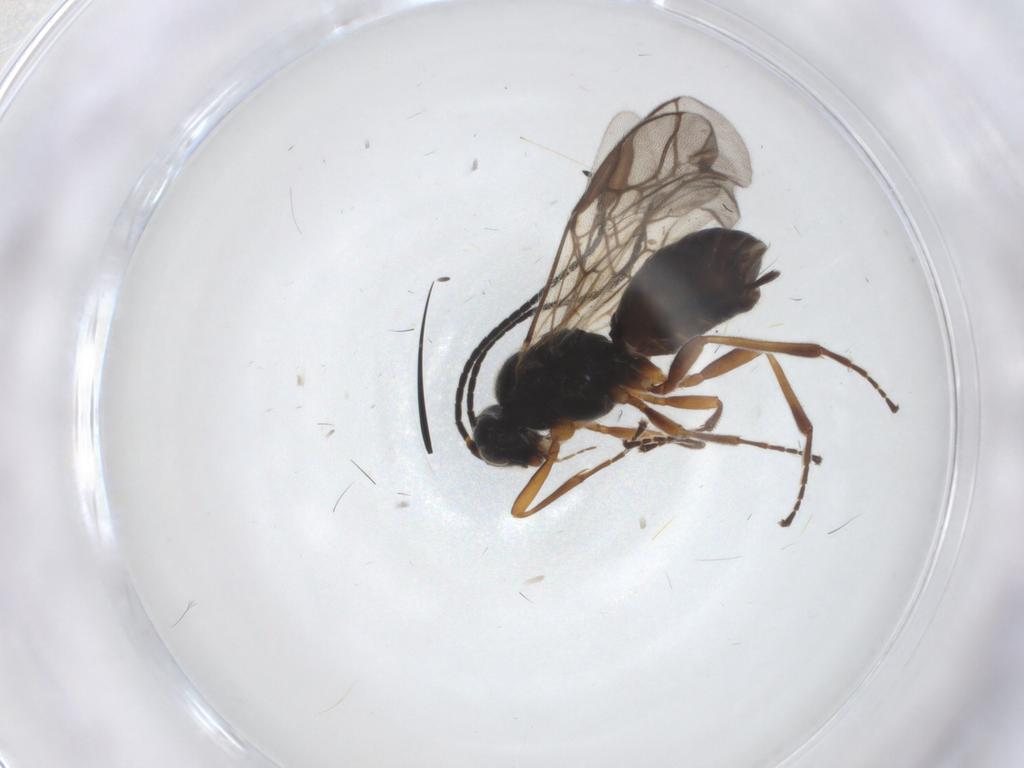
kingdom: Animalia
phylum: Arthropoda
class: Insecta
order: Hymenoptera
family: Braconidae
